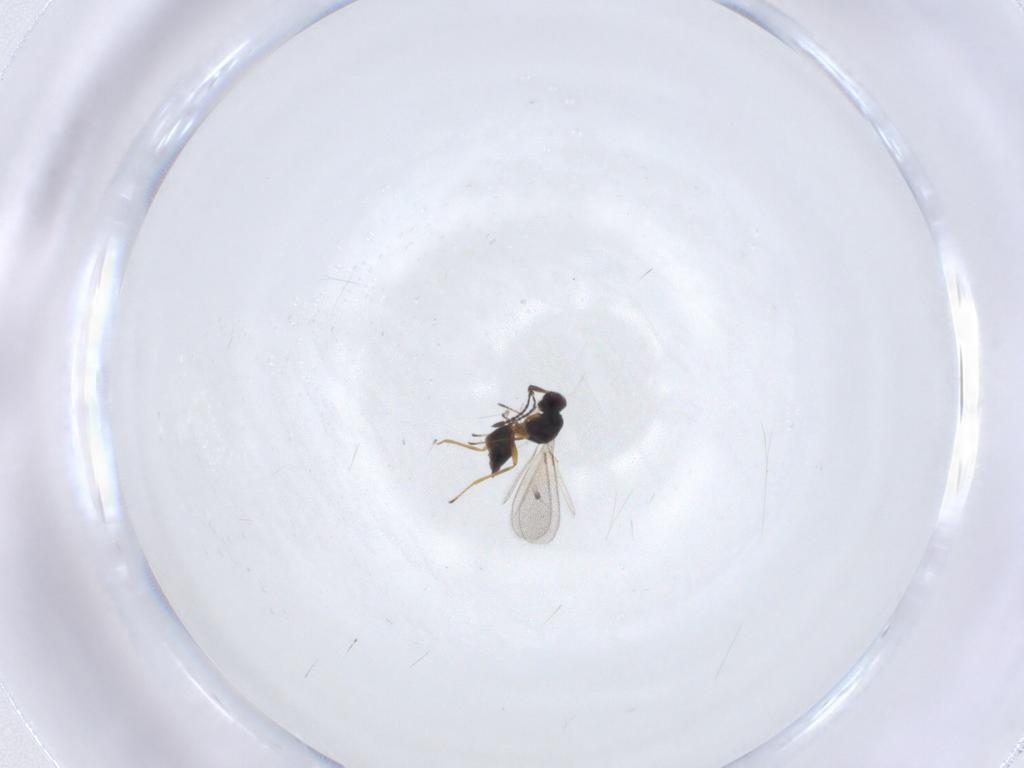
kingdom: Animalia
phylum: Arthropoda
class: Insecta
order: Hymenoptera
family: Mymaridae
